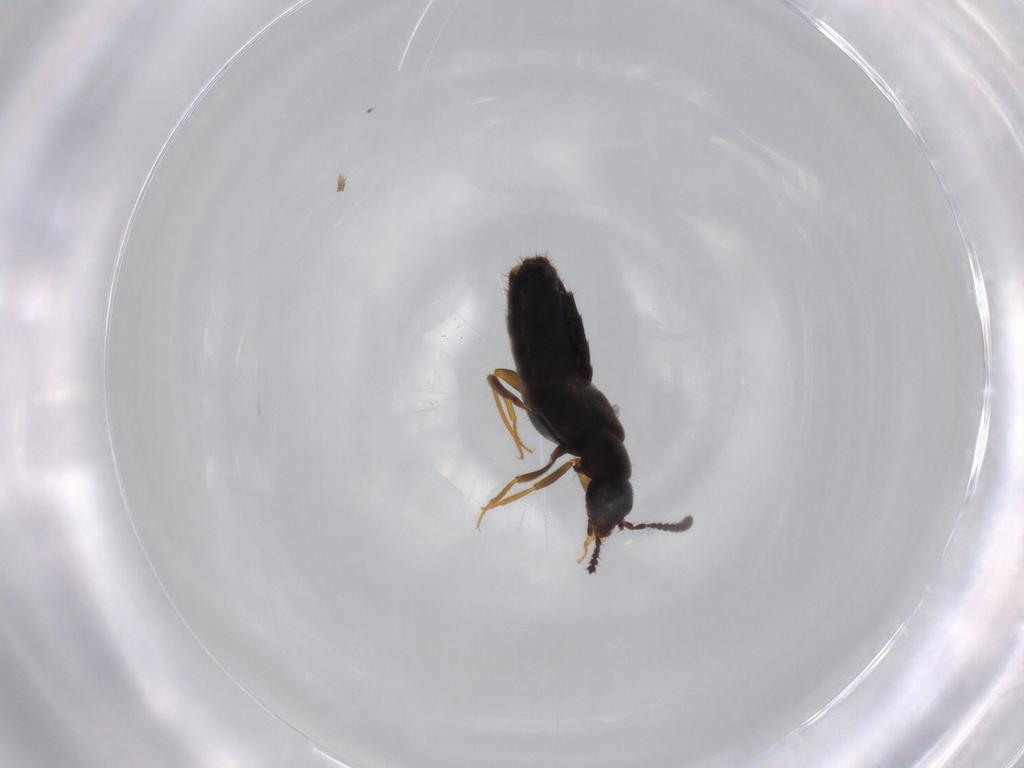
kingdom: Animalia
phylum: Arthropoda
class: Insecta
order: Coleoptera
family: Staphylinidae
